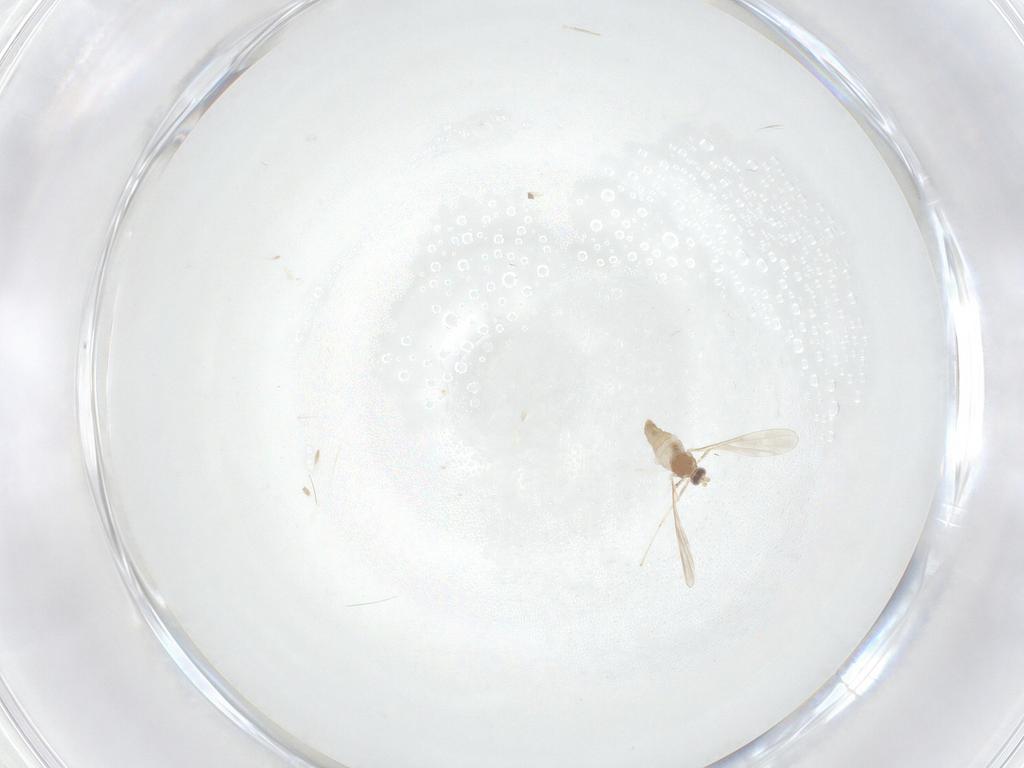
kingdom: Animalia
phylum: Arthropoda
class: Insecta
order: Diptera
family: Cecidomyiidae
